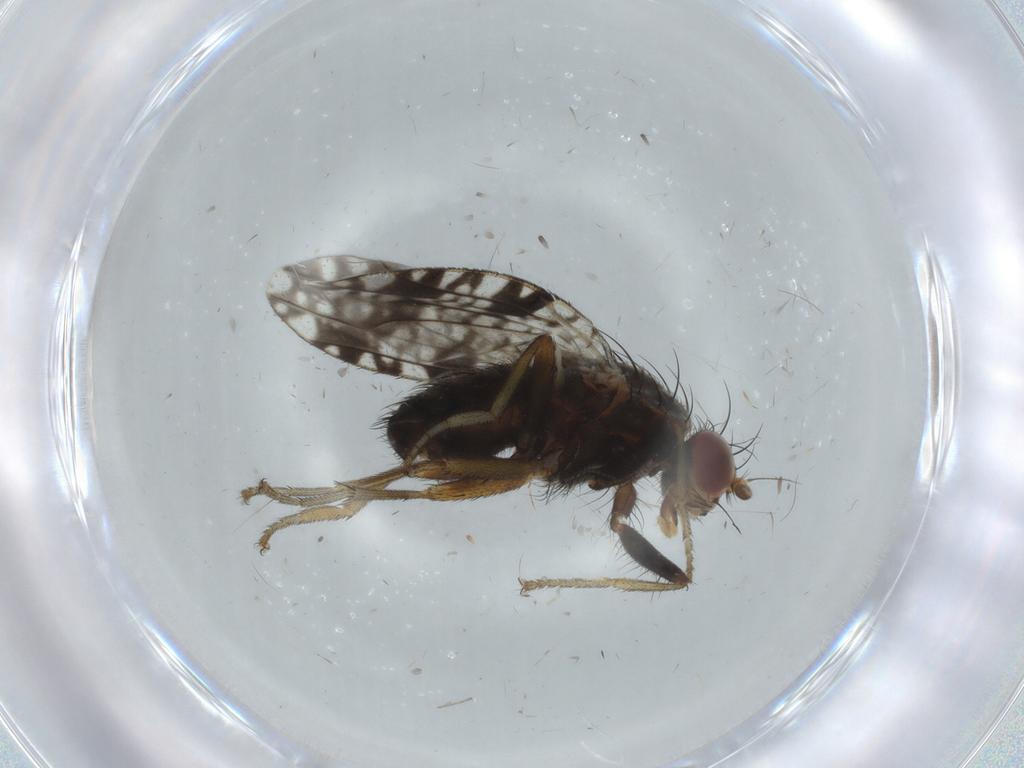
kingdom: Animalia
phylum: Arthropoda
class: Insecta
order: Diptera
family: Tephritidae
